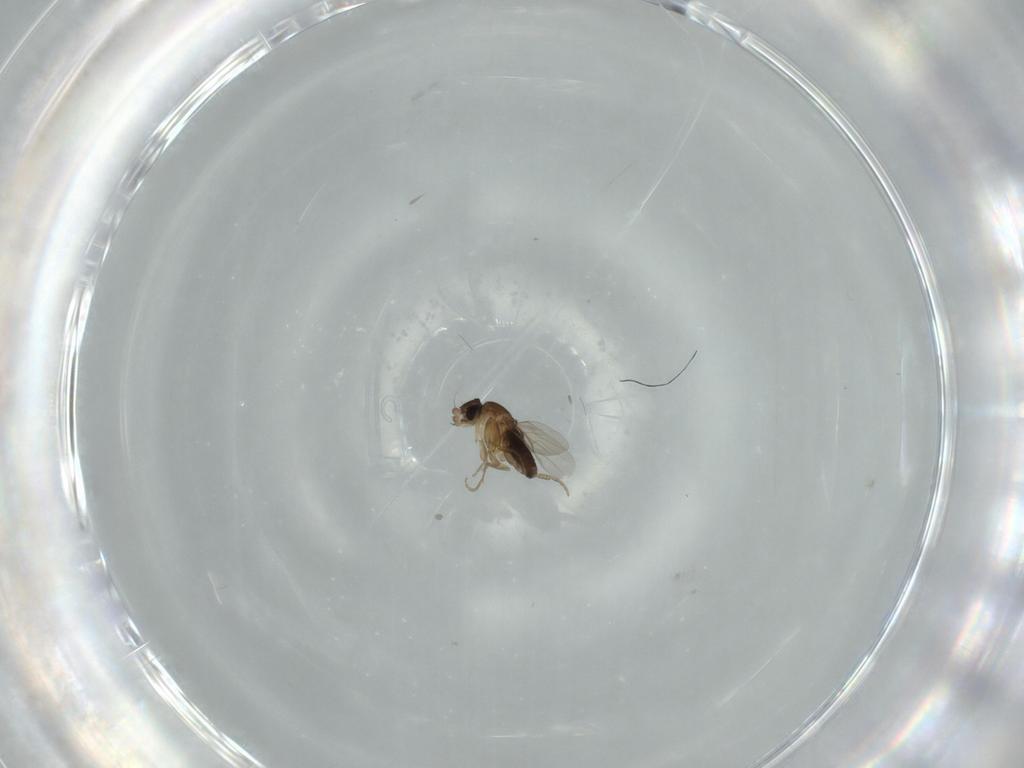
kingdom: Animalia
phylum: Arthropoda
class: Insecta
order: Diptera
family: Phoridae
